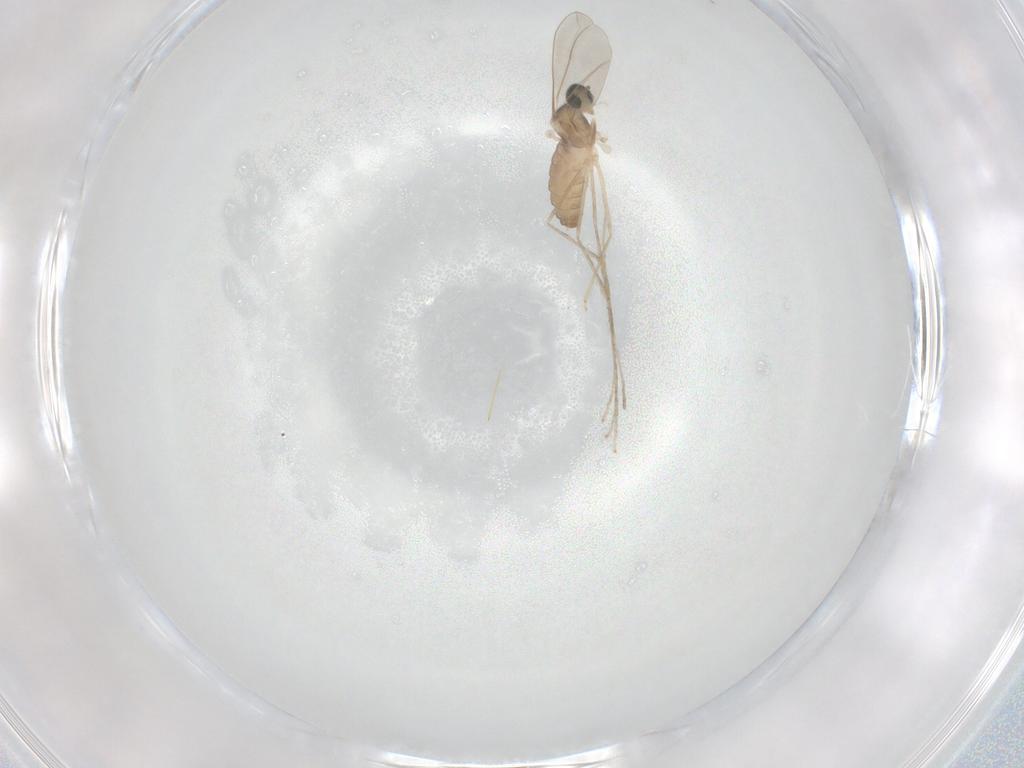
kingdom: Animalia
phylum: Arthropoda
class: Insecta
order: Diptera
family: Cecidomyiidae
